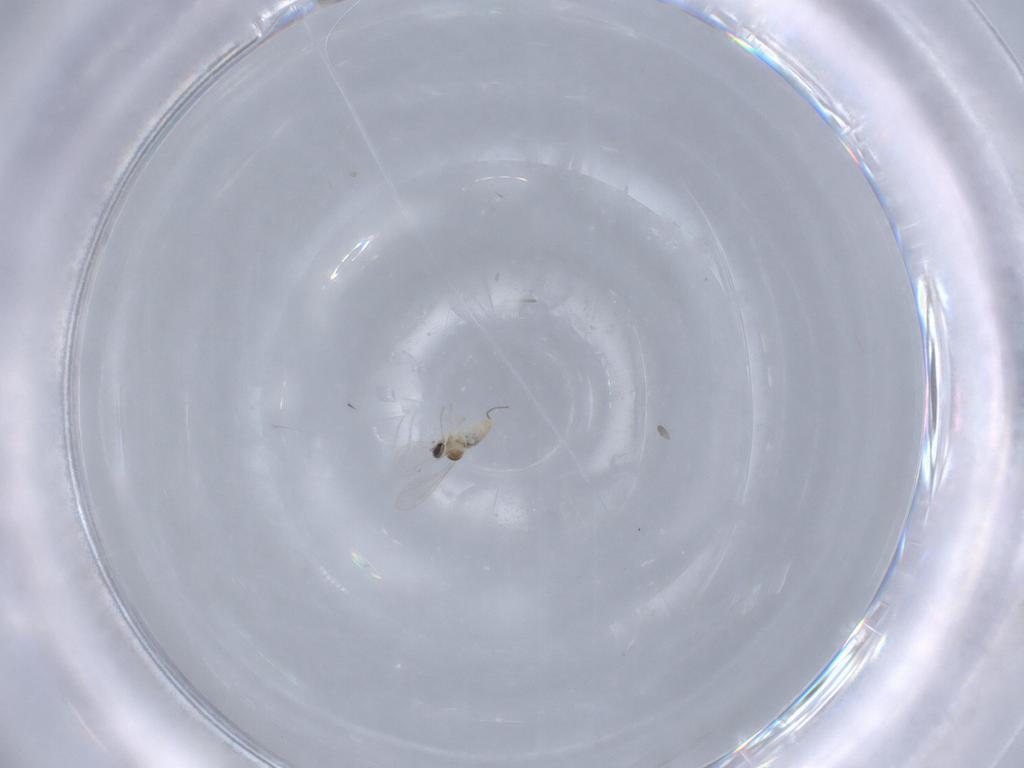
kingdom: Animalia
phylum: Arthropoda
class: Insecta
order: Diptera
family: Cecidomyiidae
